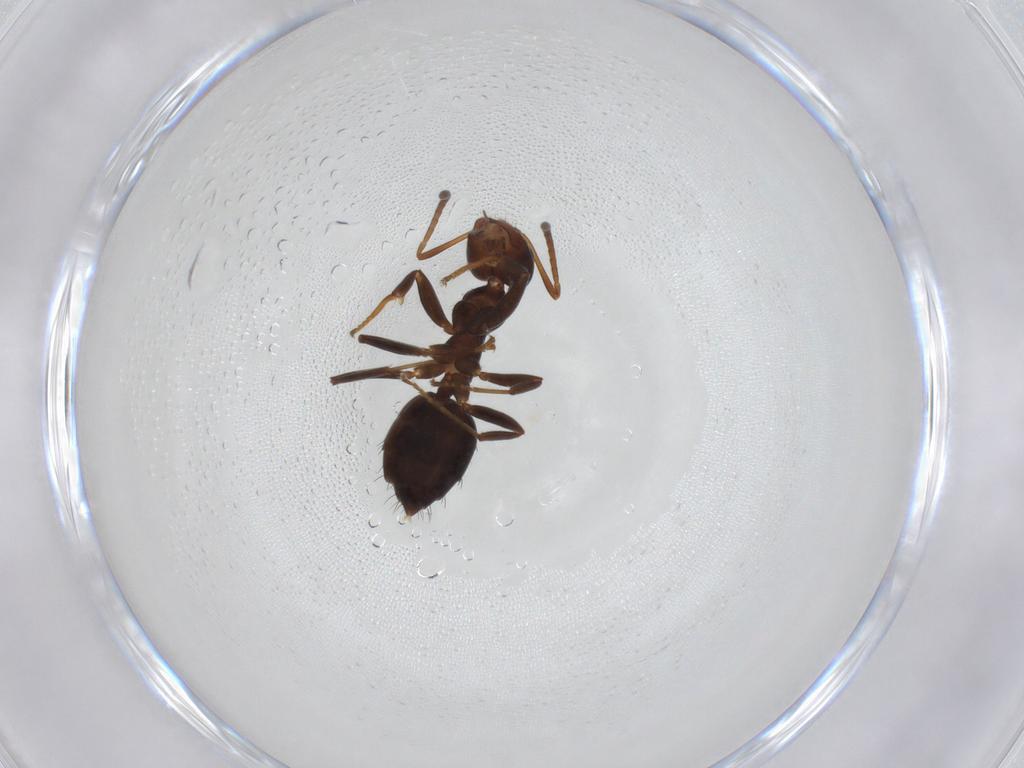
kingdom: Animalia
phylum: Arthropoda
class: Insecta
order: Hymenoptera
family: Formicidae
